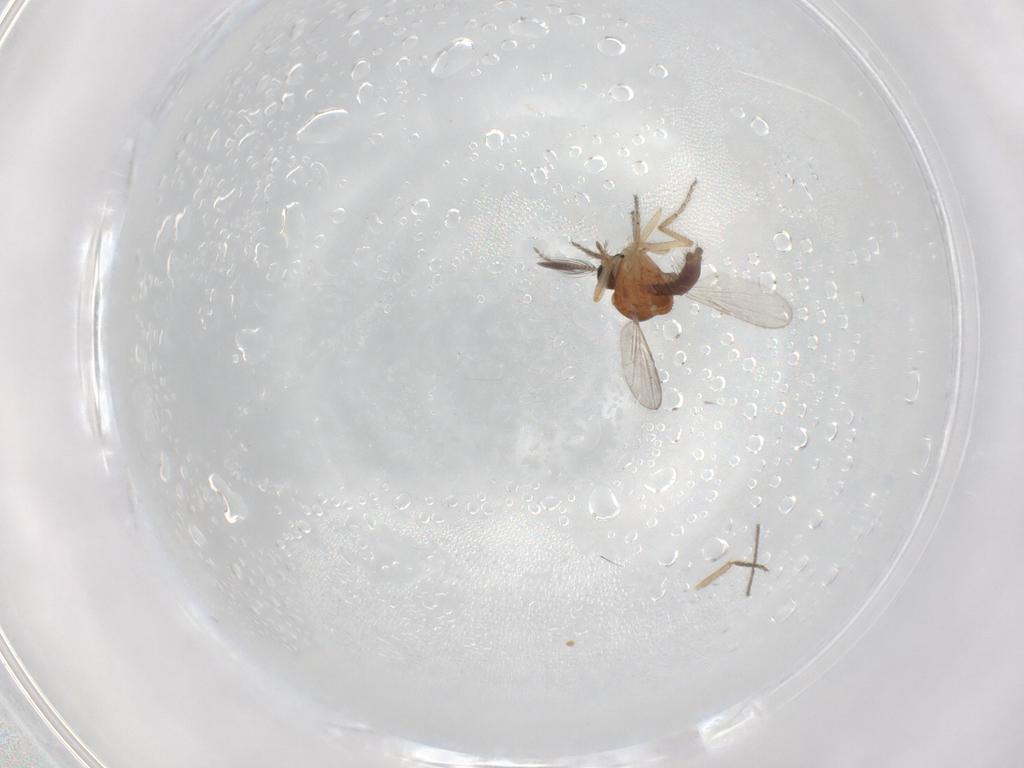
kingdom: Animalia
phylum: Arthropoda
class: Insecta
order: Diptera
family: Ceratopogonidae
